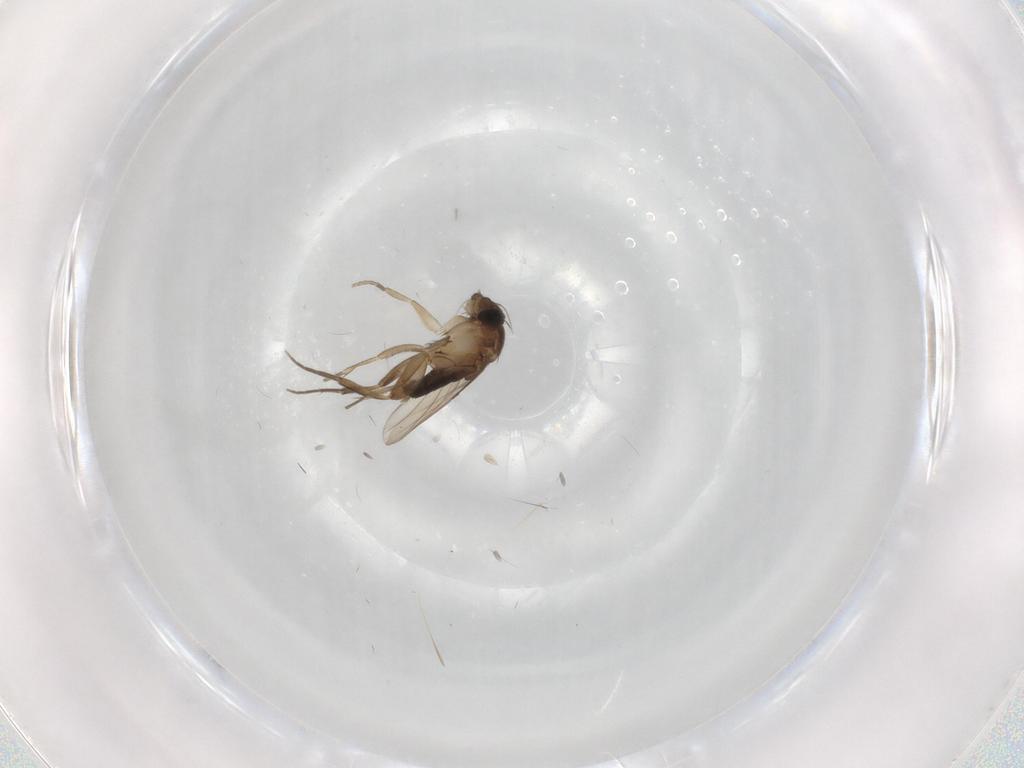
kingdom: Animalia
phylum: Arthropoda
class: Insecta
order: Diptera
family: Phoridae
